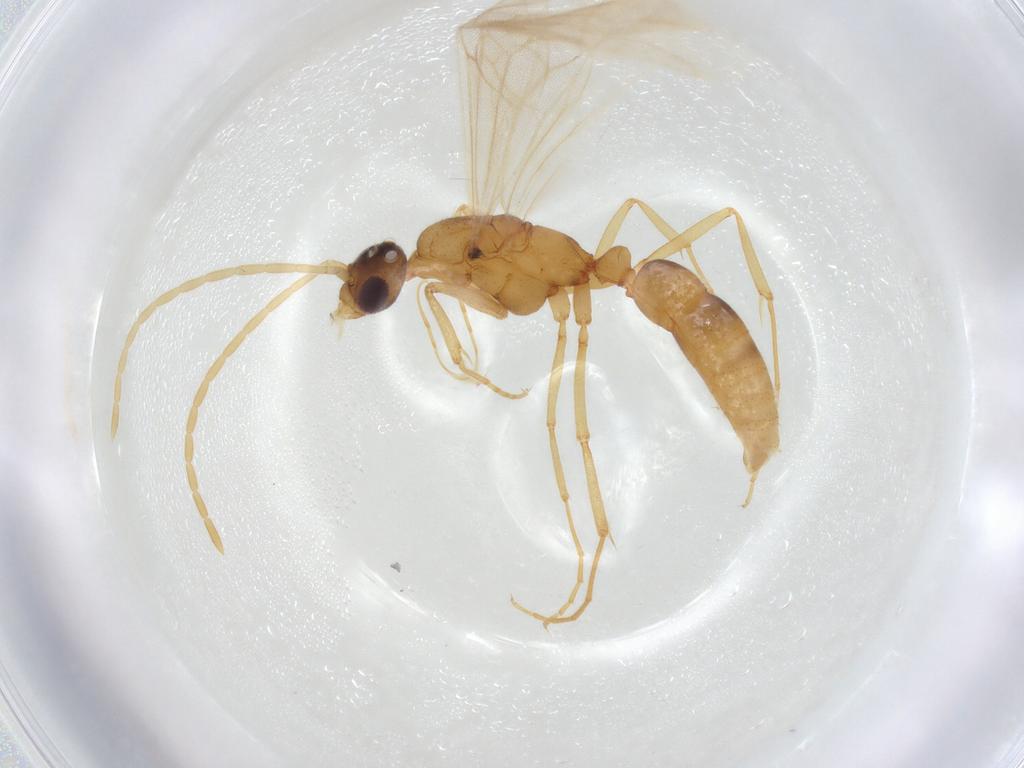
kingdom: Animalia
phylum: Arthropoda
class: Insecta
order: Hymenoptera
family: Formicidae
